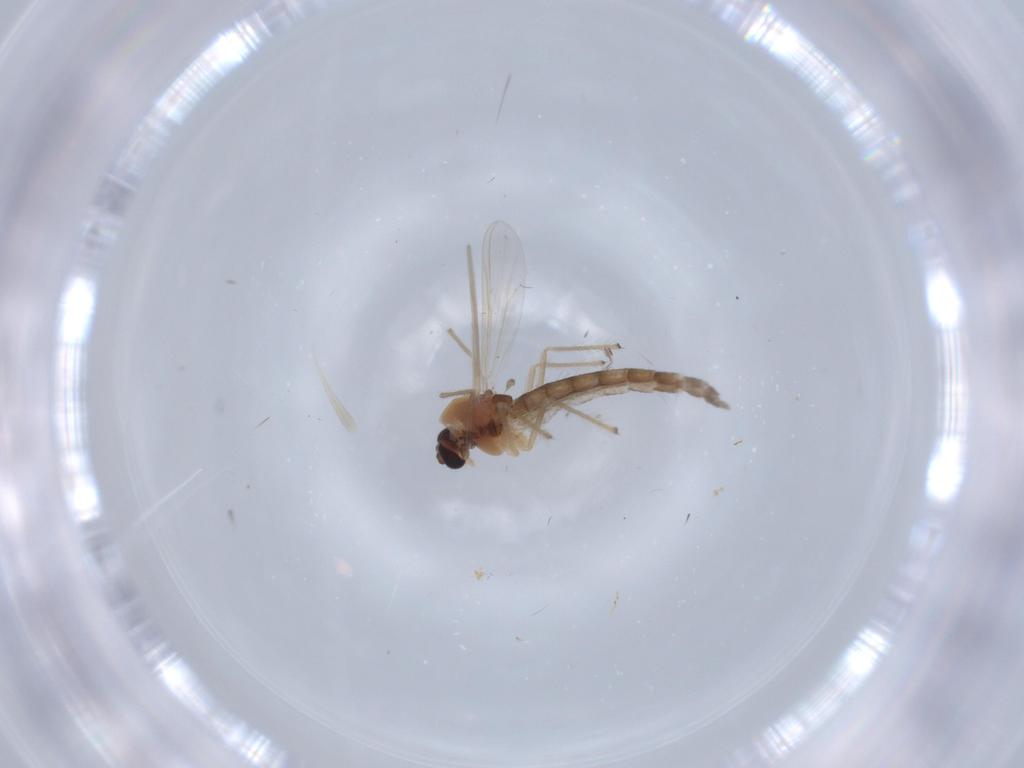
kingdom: Animalia
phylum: Arthropoda
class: Insecta
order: Diptera
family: Chironomidae
